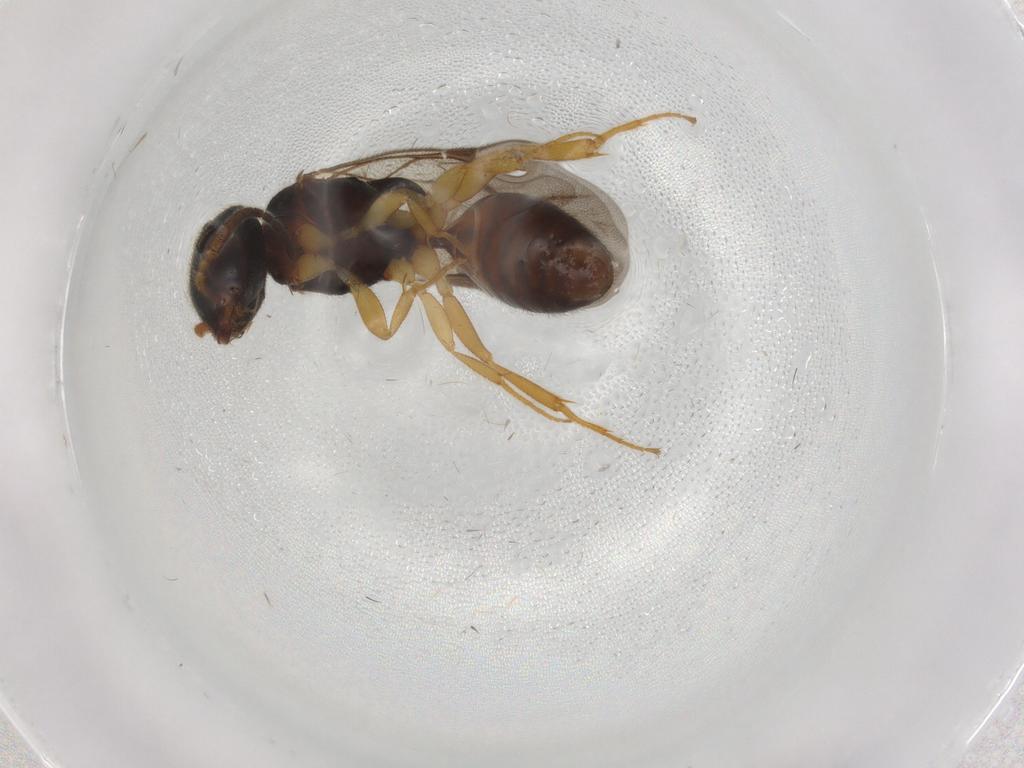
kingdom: Animalia
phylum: Arthropoda
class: Insecta
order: Hymenoptera
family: Bethylidae
